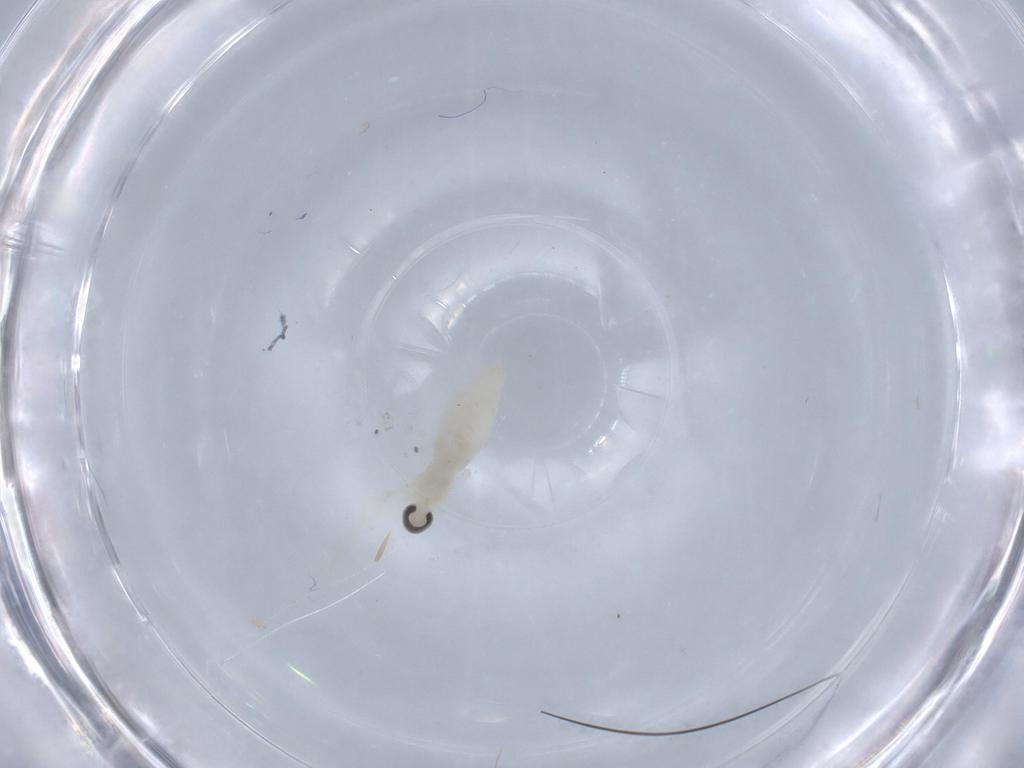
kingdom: Animalia
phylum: Arthropoda
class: Insecta
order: Diptera
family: Cecidomyiidae
